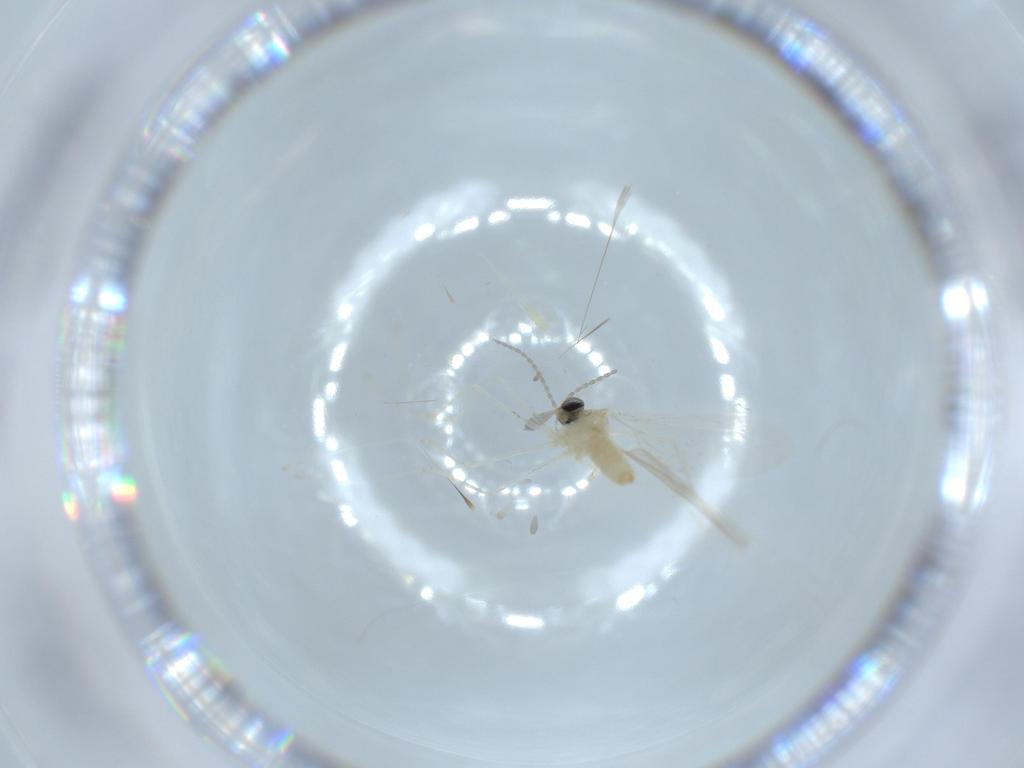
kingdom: Animalia
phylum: Arthropoda
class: Insecta
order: Diptera
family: Cecidomyiidae
